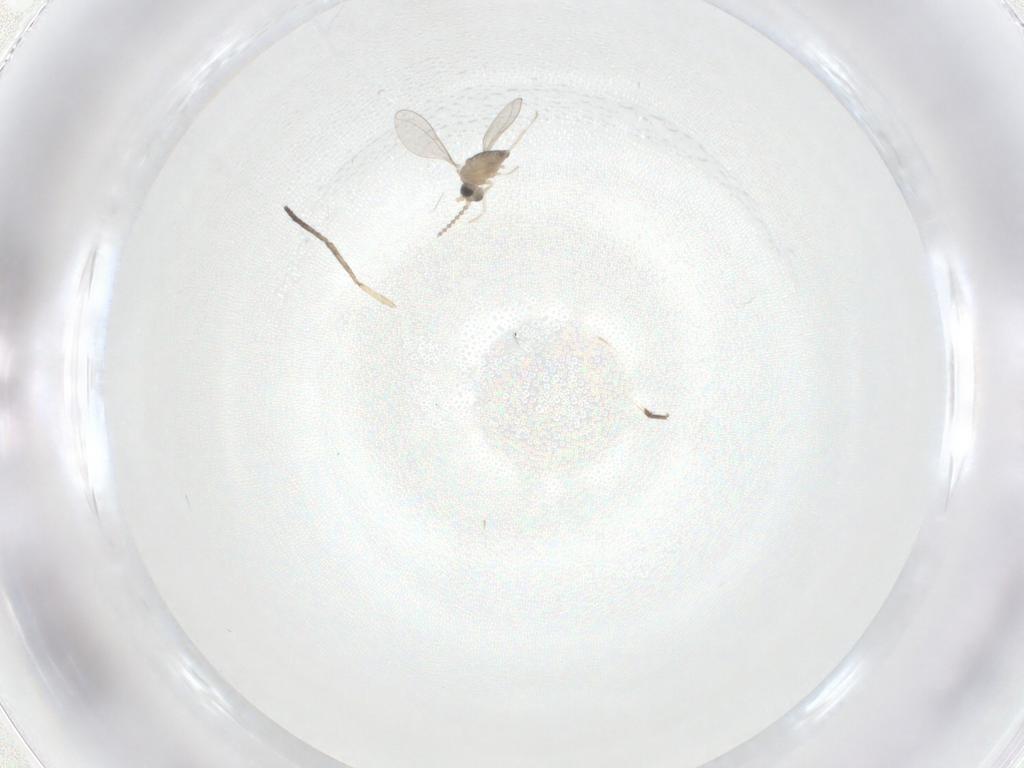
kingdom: Animalia
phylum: Arthropoda
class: Insecta
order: Diptera
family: Cecidomyiidae
